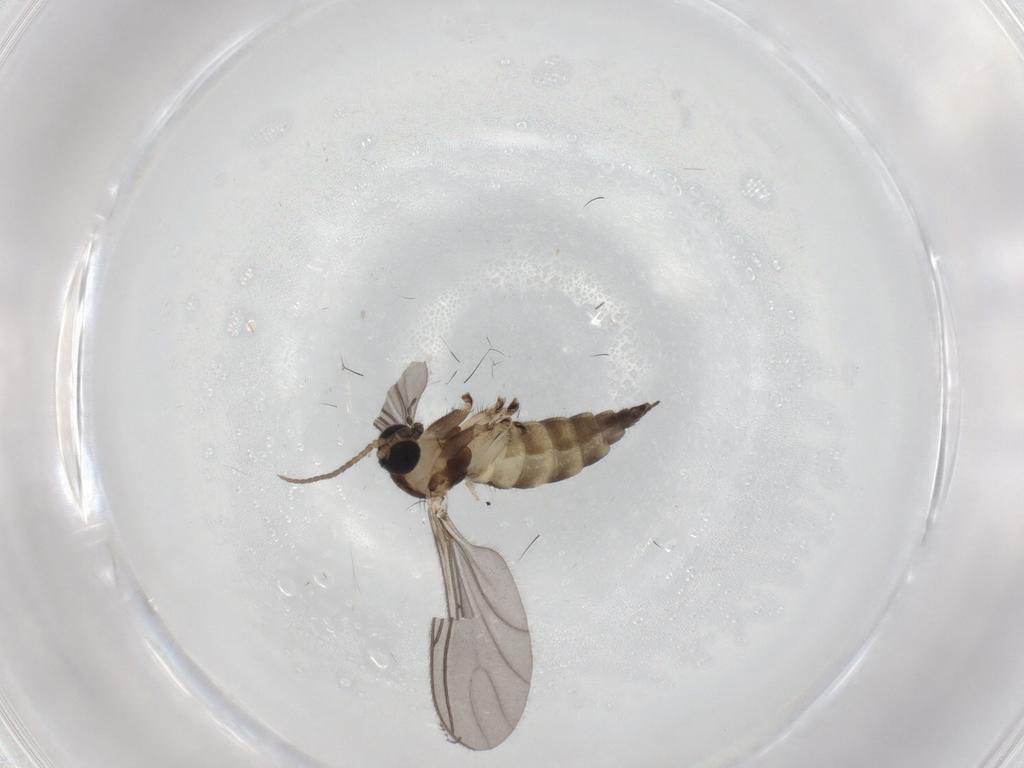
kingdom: Animalia
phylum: Arthropoda
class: Insecta
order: Diptera
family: Sciaridae
